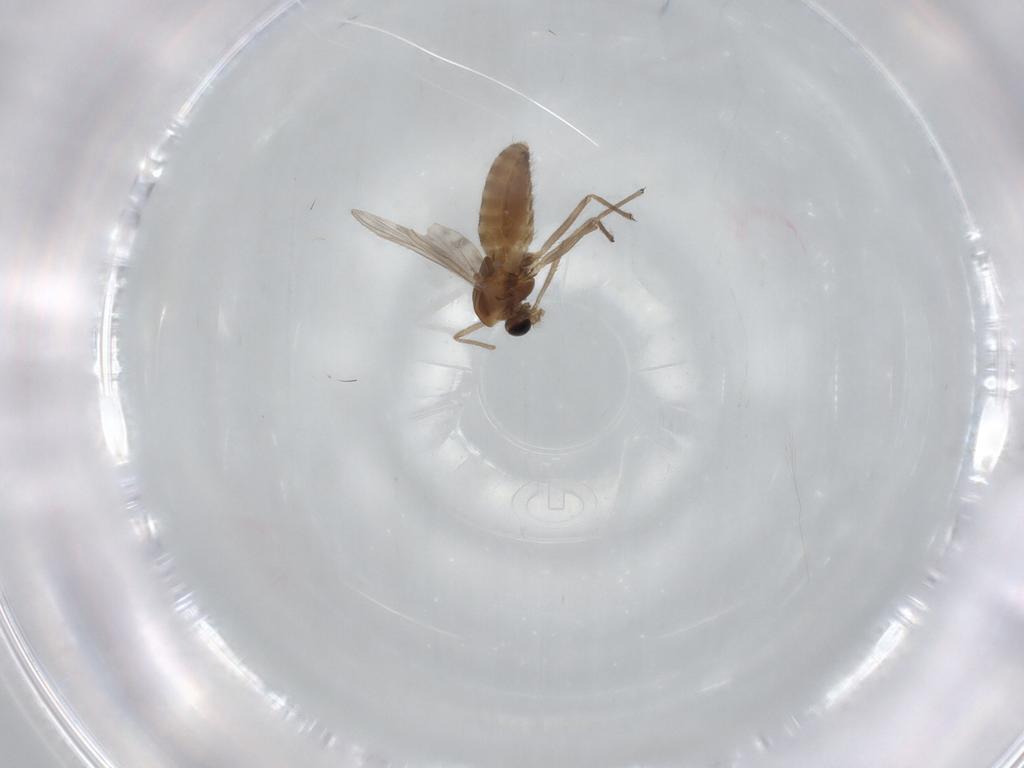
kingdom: Animalia
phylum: Arthropoda
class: Insecta
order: Diptera
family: Chironomidae
